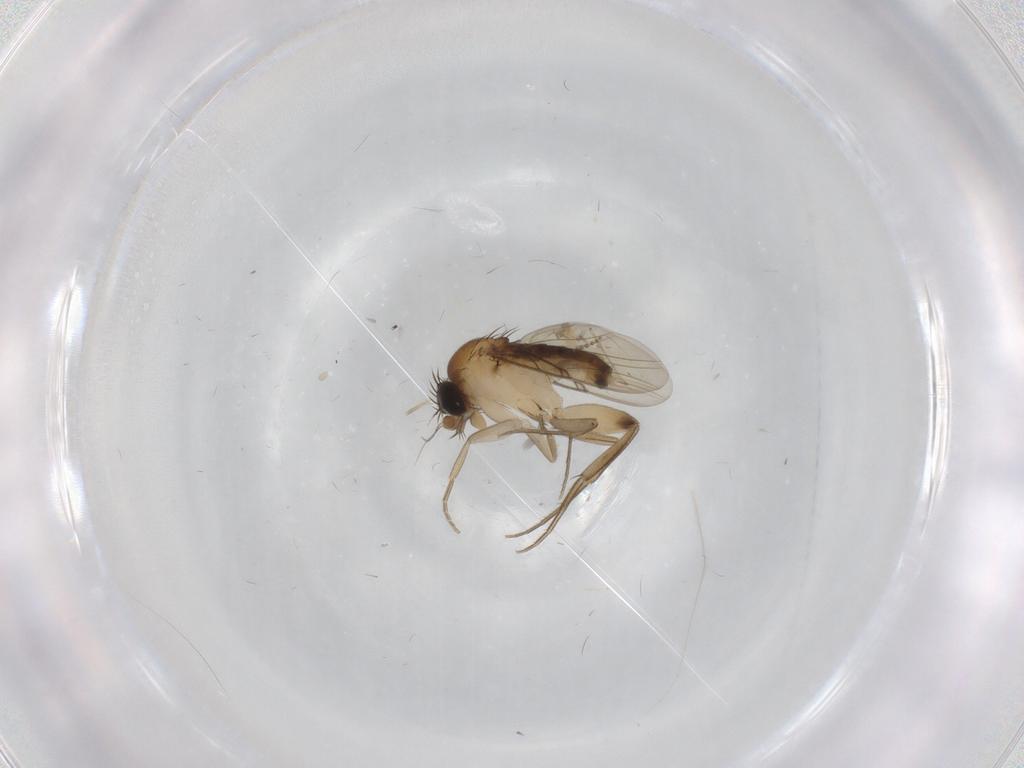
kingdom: Animalia
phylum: Arthropoda
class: Insecta
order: Diptera
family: Phoridae
